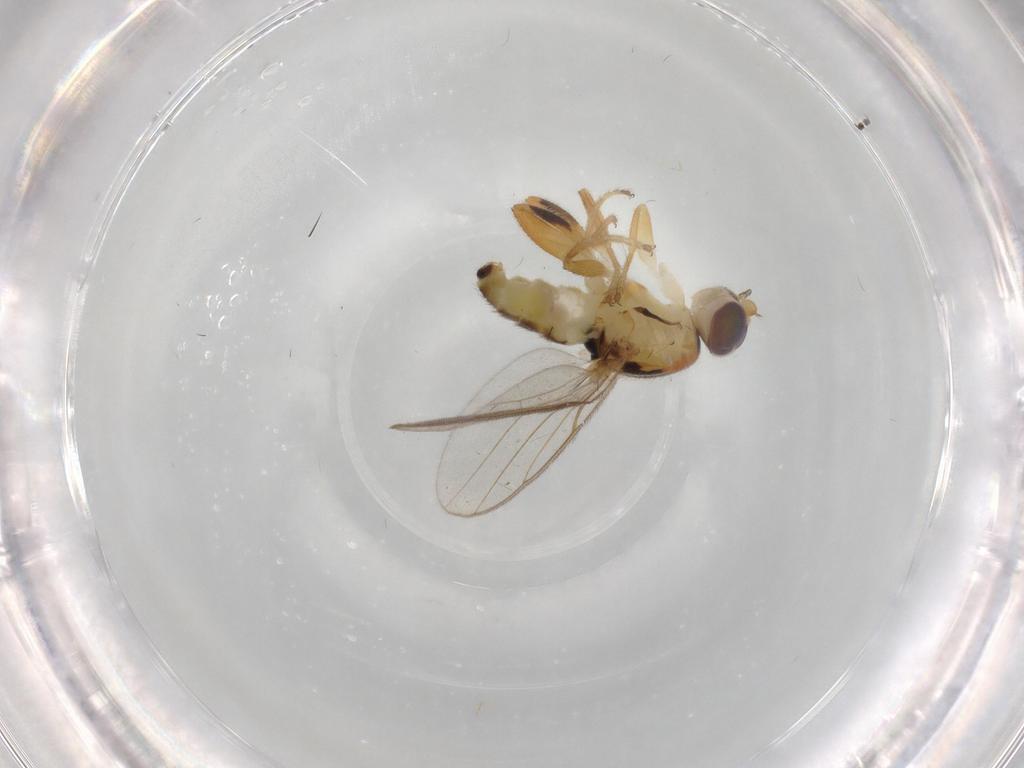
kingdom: Animalia
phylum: Arthropoda
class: Insecta
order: Diptera
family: Chloropidae
